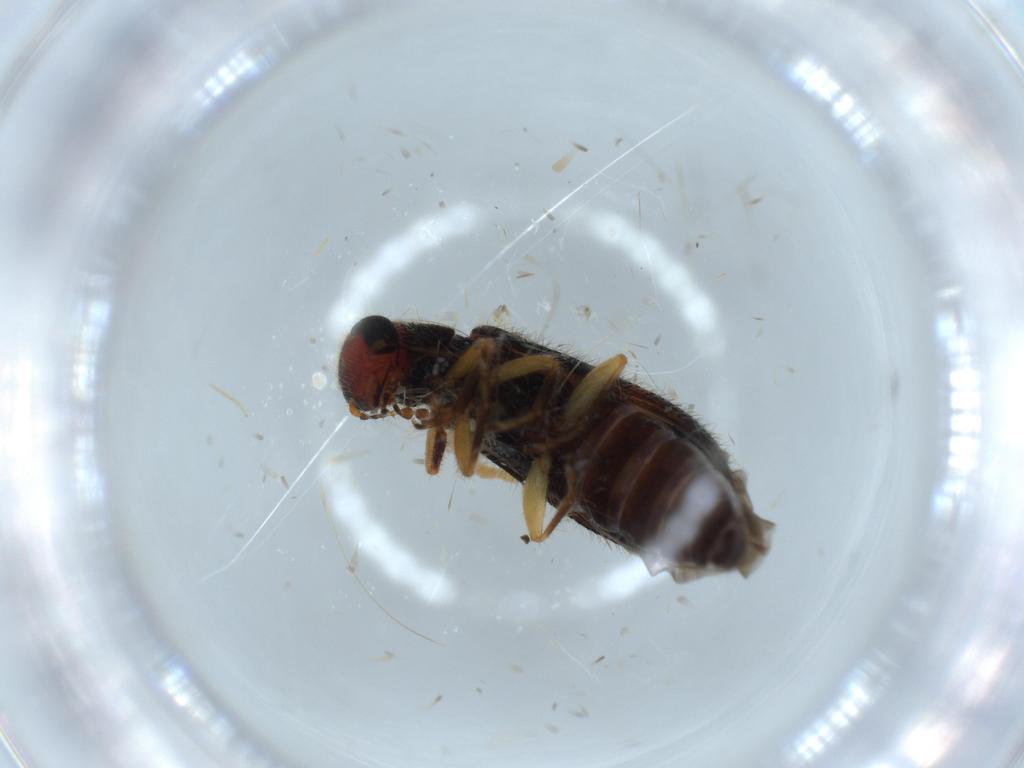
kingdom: Animalia
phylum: Arthropoda
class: Insecta
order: Coleoptera
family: Cleridae
